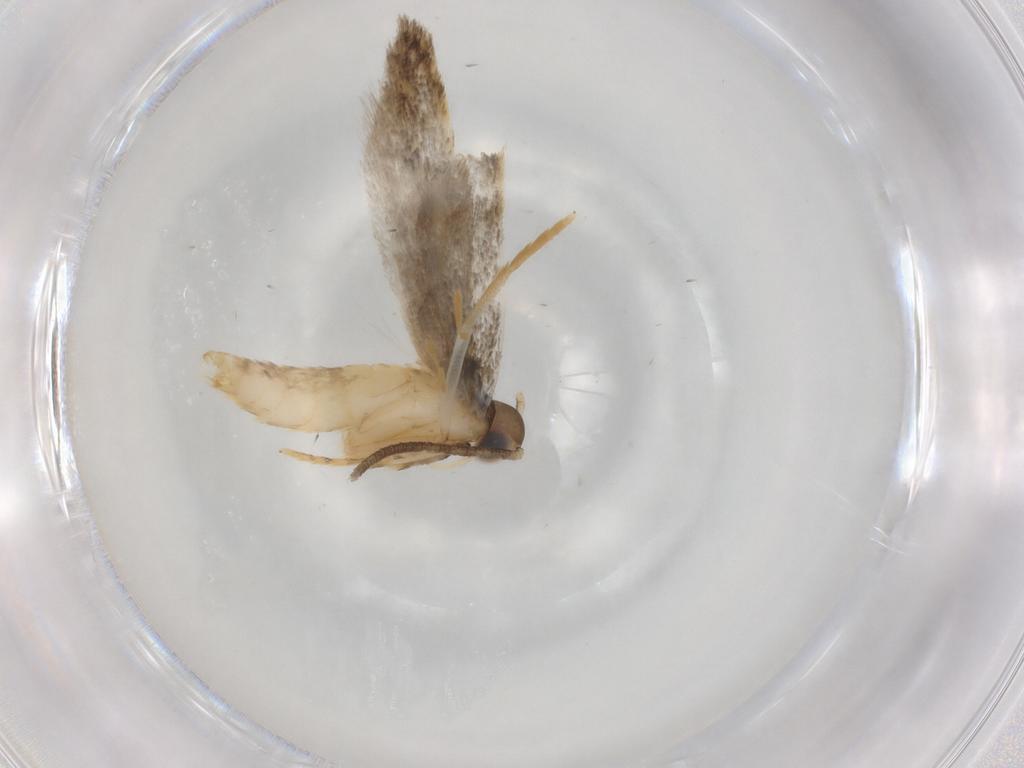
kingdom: Animalia
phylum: Arthropoda
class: Insecta
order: Lepidoptera
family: Autostichidae
